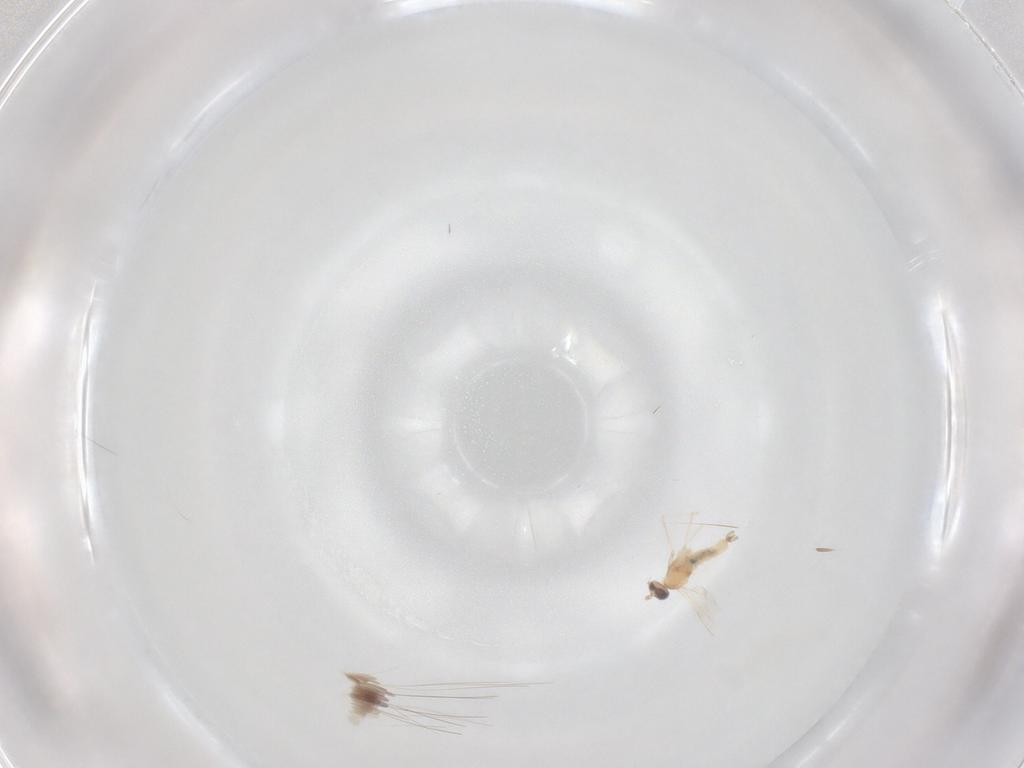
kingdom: Animalia
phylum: Arthropoda
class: Insecta
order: Diptera
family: Cecidomyiidae
